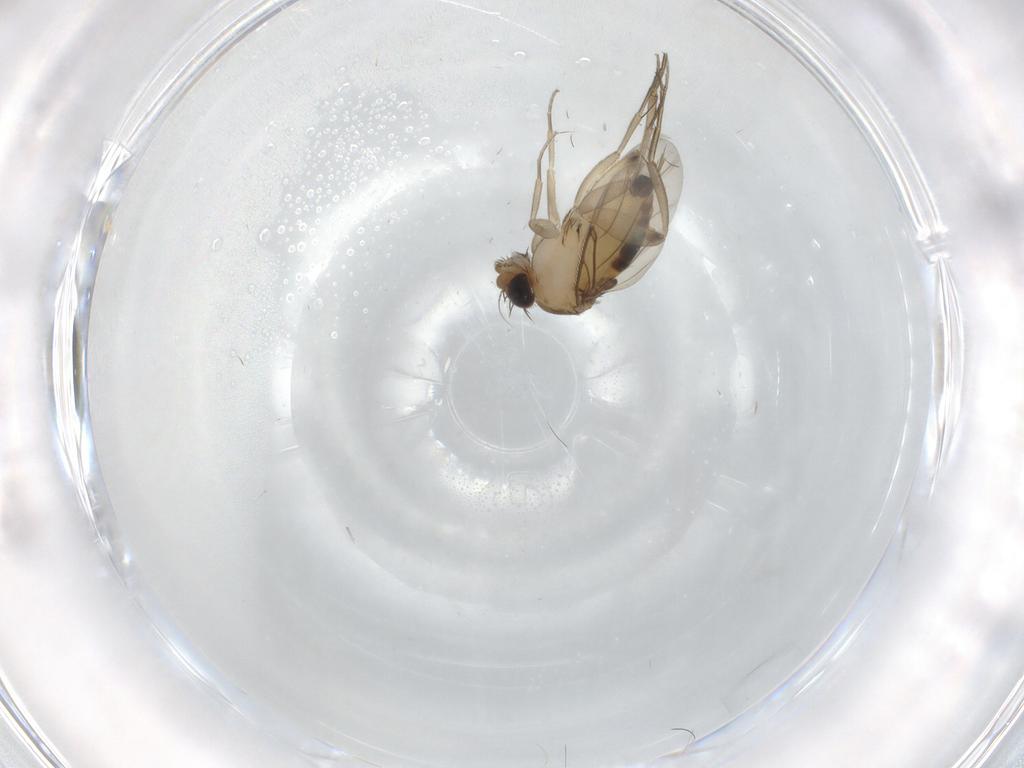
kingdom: Animalia
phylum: Arthropoda
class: Insecta
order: Diptera
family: Phoridae
